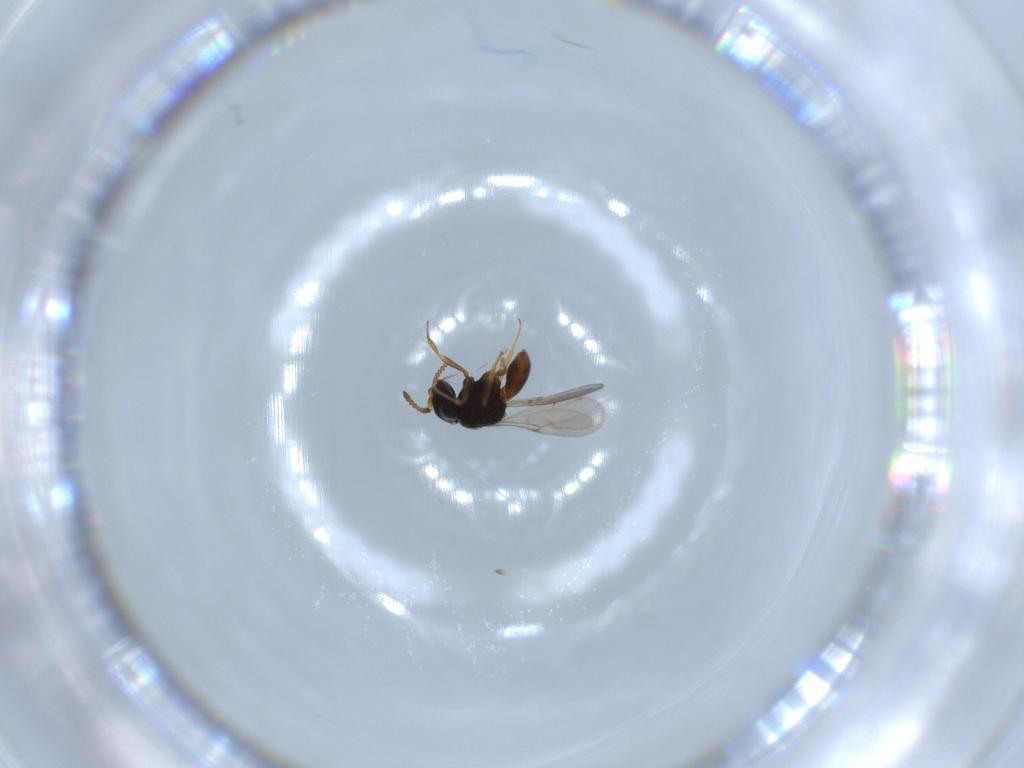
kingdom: Animalia
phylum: Arthropoda
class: Insecta
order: Hymenoptera
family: Scelionidae
